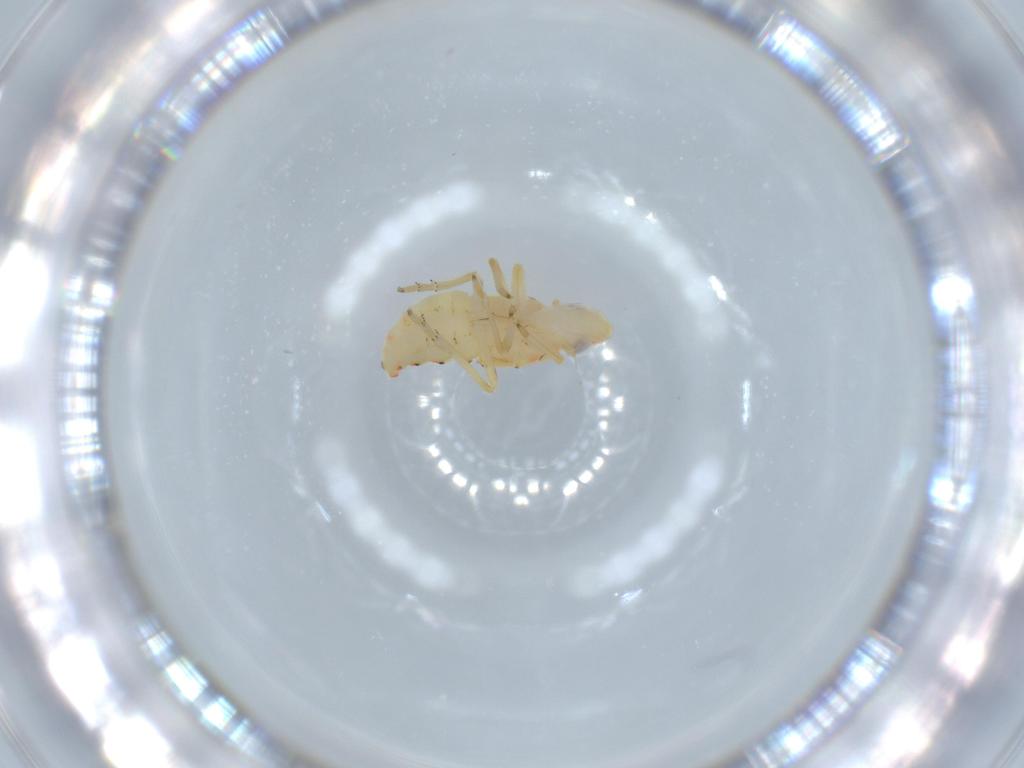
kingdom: Animalia
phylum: Arthropoda
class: Insecta
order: Hemiptera
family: Tropiduchidae
